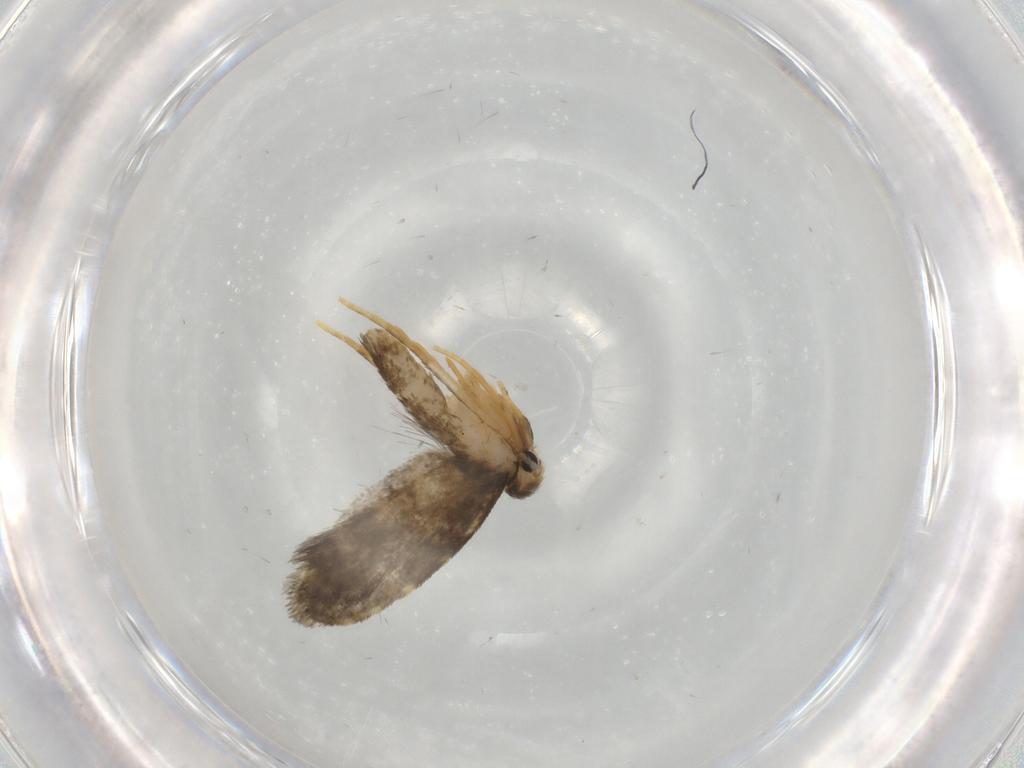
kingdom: Animalia
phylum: Arthropoda
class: Insecta
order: Lepidoptera
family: Psychidae
